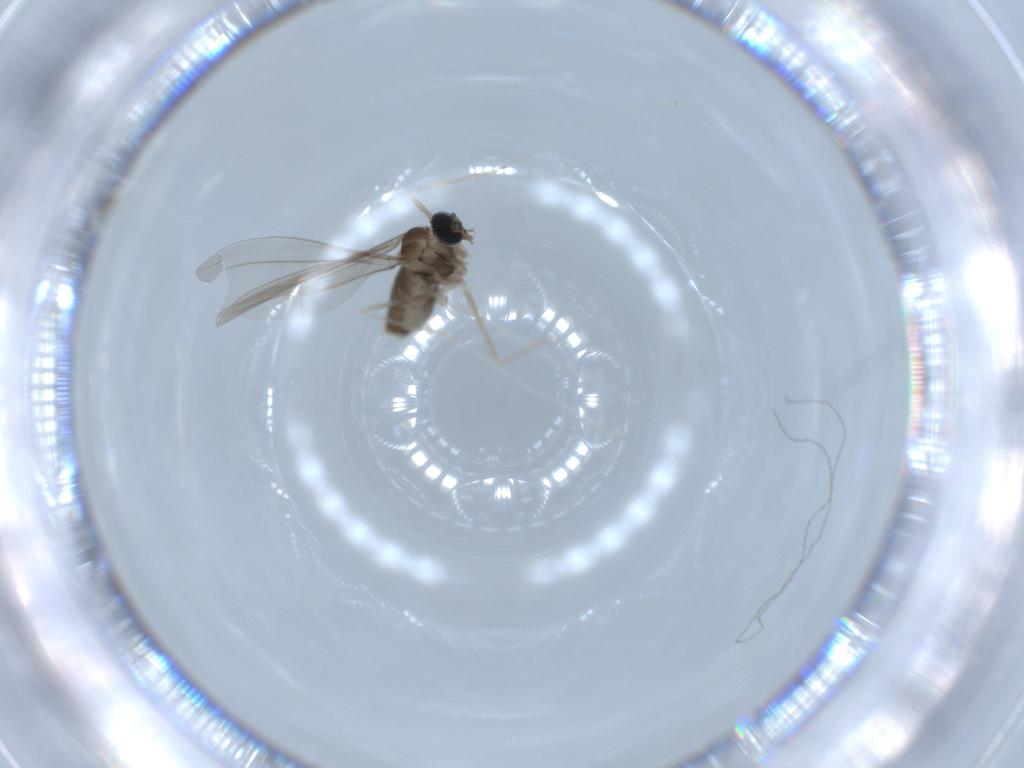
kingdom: Animalia
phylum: Arthropoda
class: Insecta
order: Diptera
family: Cecidomyiidae
